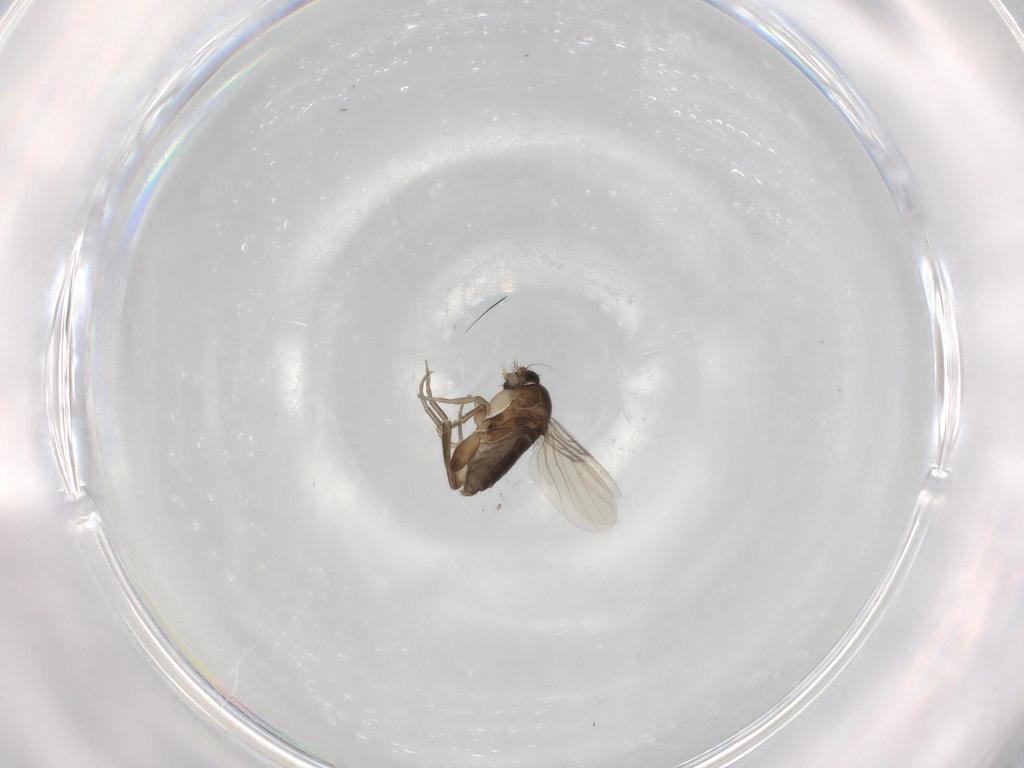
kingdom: Animalia
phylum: Arthropoda
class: Insecta
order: Diptera
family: Phoridae
